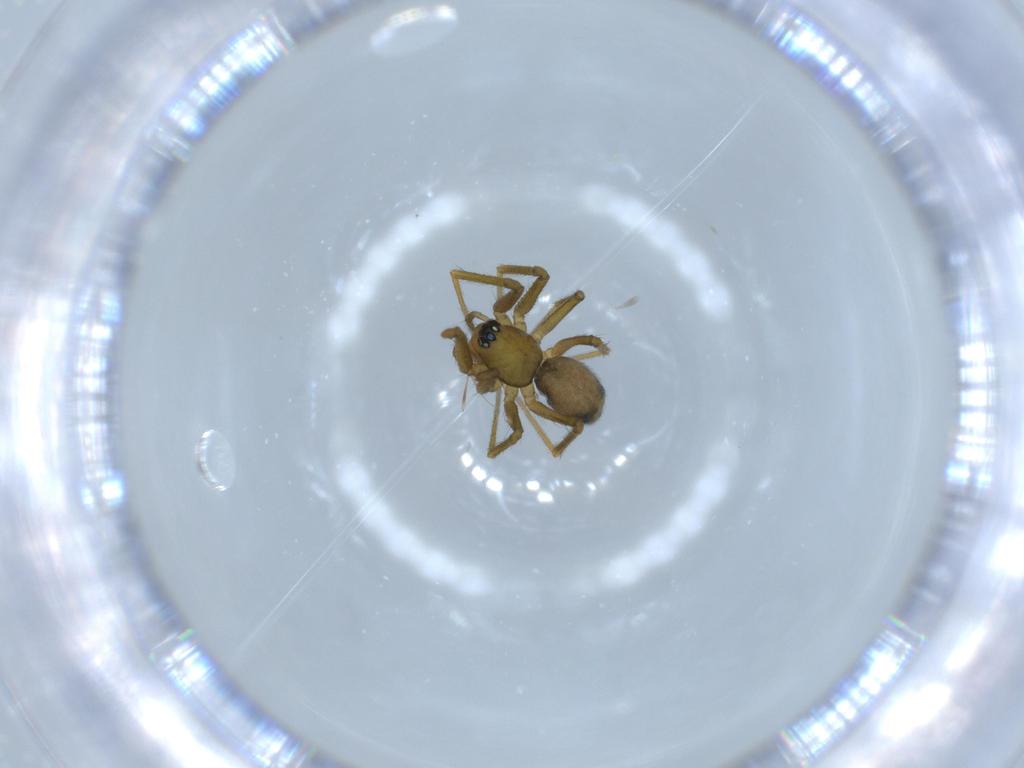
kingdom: Animalia
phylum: Arthropoda
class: Arachnida
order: Araneae
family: Linyphiidae
